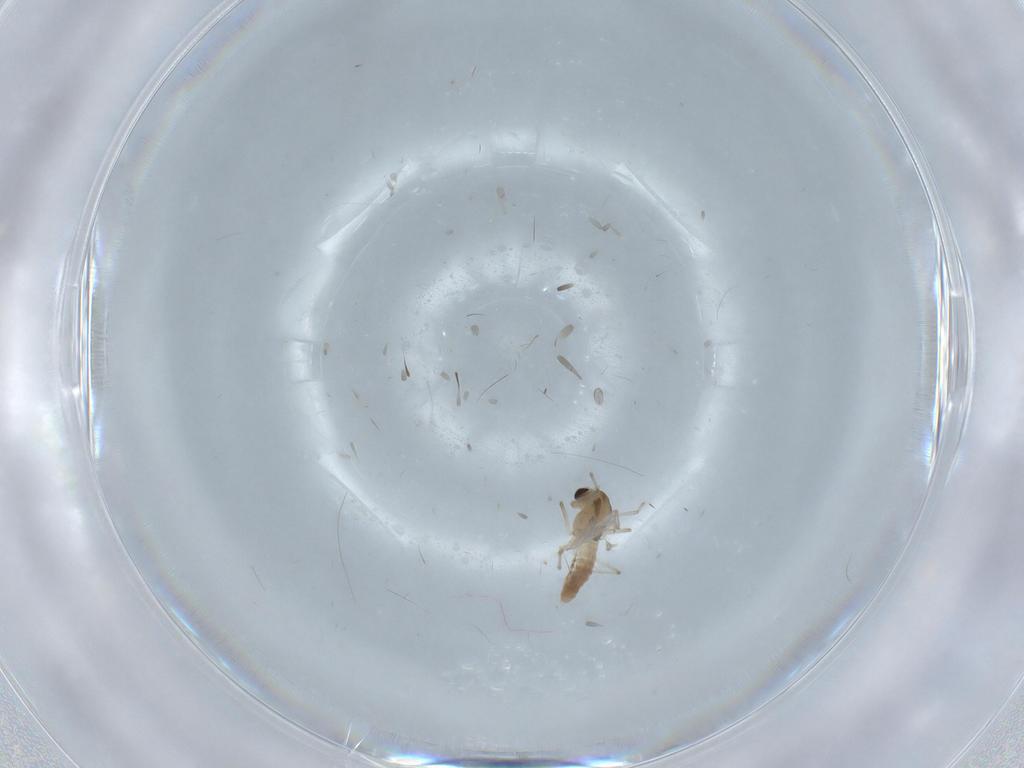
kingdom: Animalia
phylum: Arthropoda
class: Insecta
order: Diptera
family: Chironomidae
